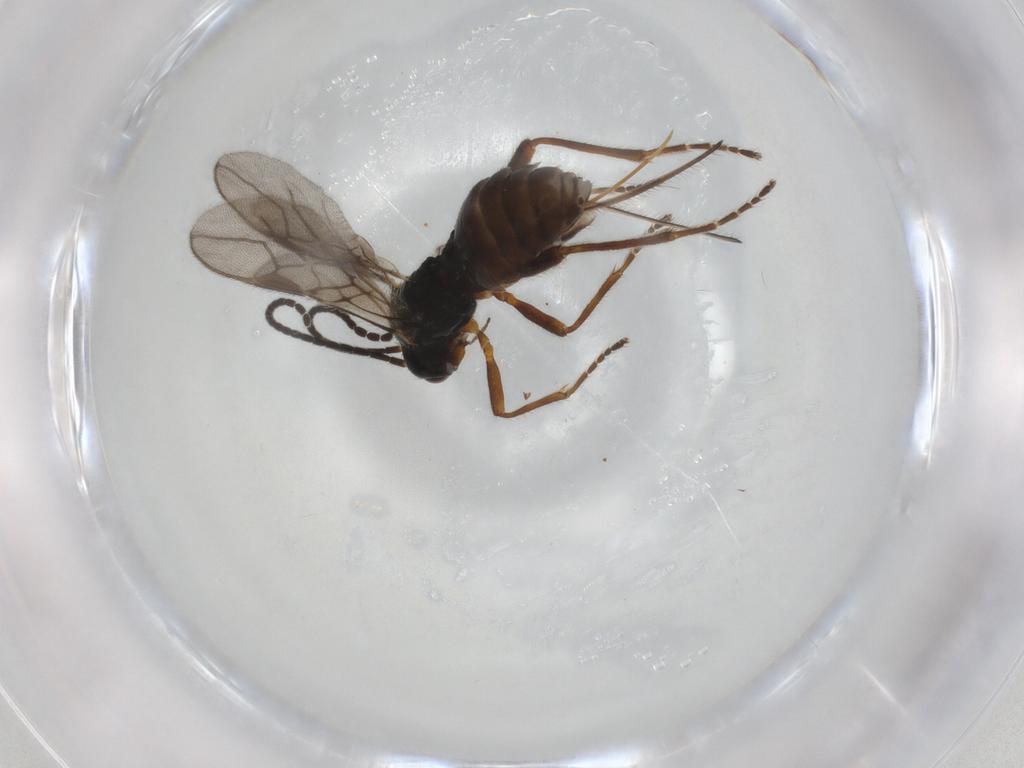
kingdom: Animalia
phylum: Arthropoda
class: Insecta
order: Hymenoptera
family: Braconidae
